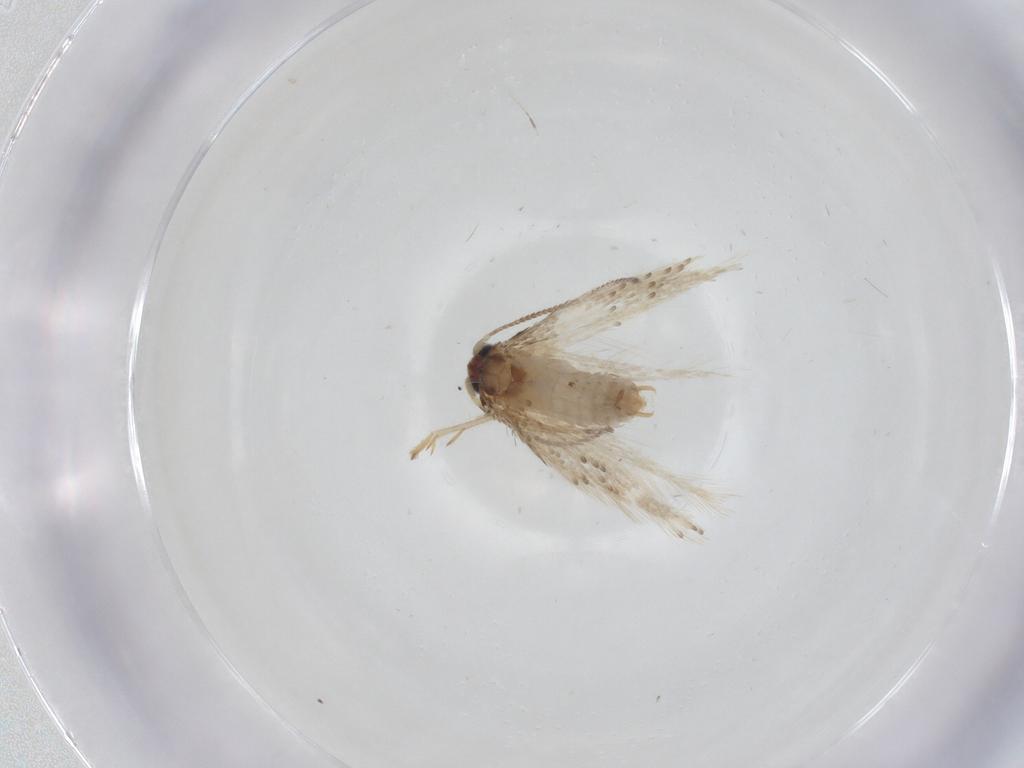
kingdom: Animalia
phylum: Arthropoda
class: Insecta
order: Lepidoptera
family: Nepticulidae
